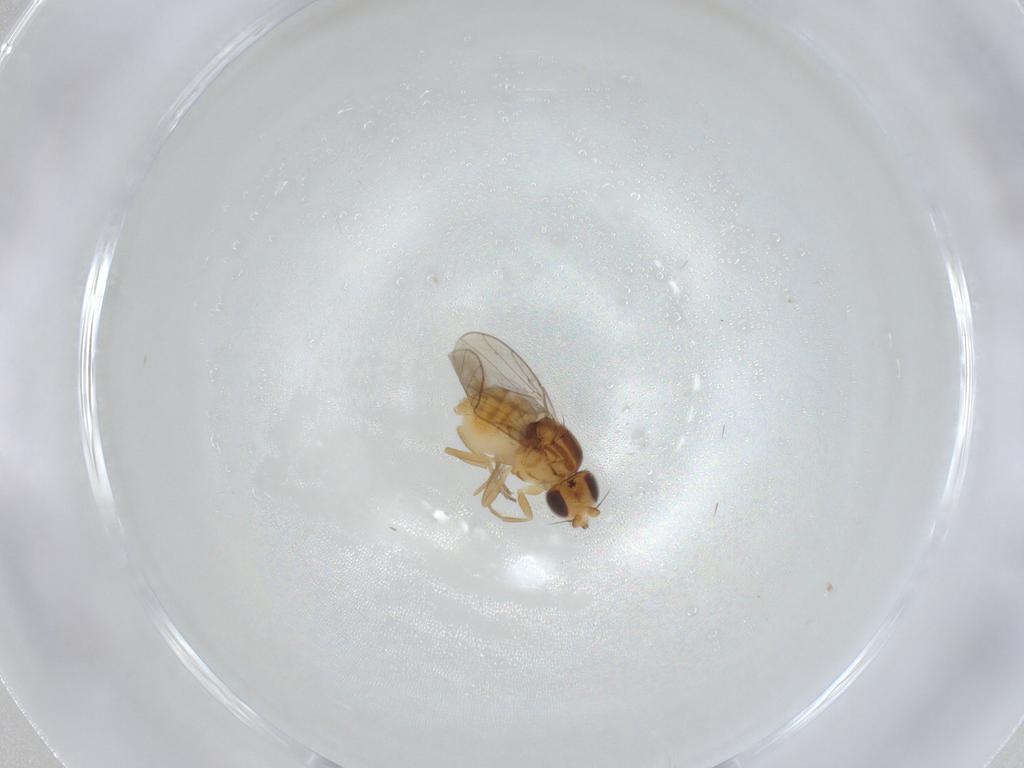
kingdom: Animalia
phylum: Arthropoda
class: Insecta
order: Diptera
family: Chloropidae
